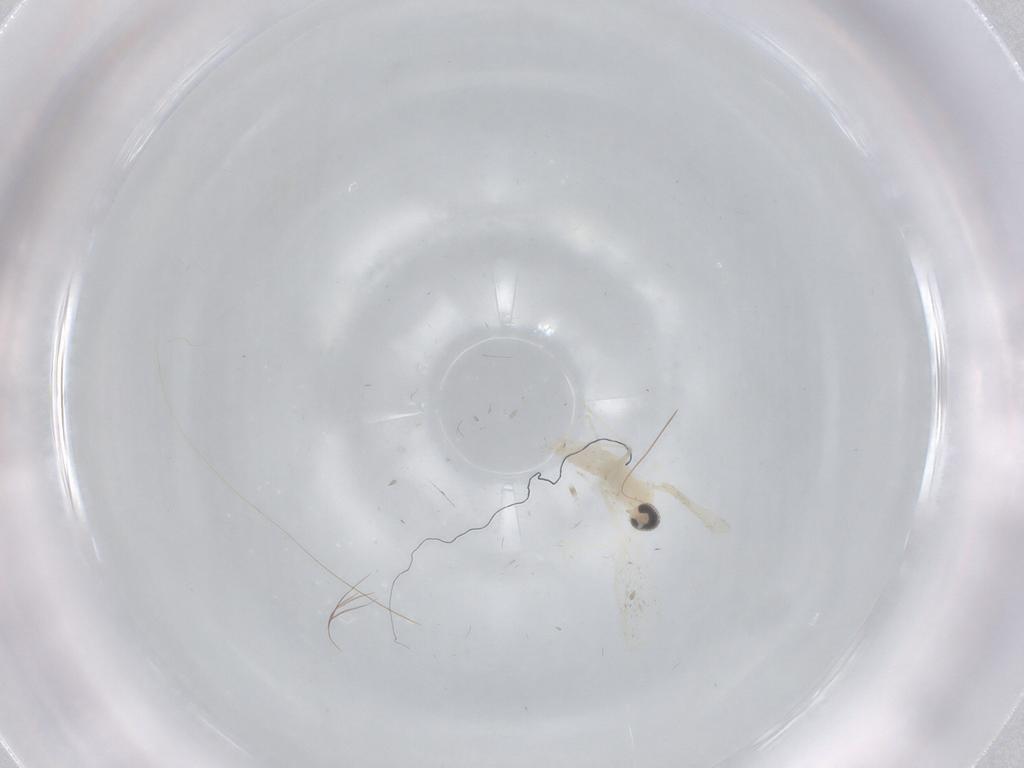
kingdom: Animalia
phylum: Arthropoda
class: Insecta
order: Diptera
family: Cecidomyiidae
